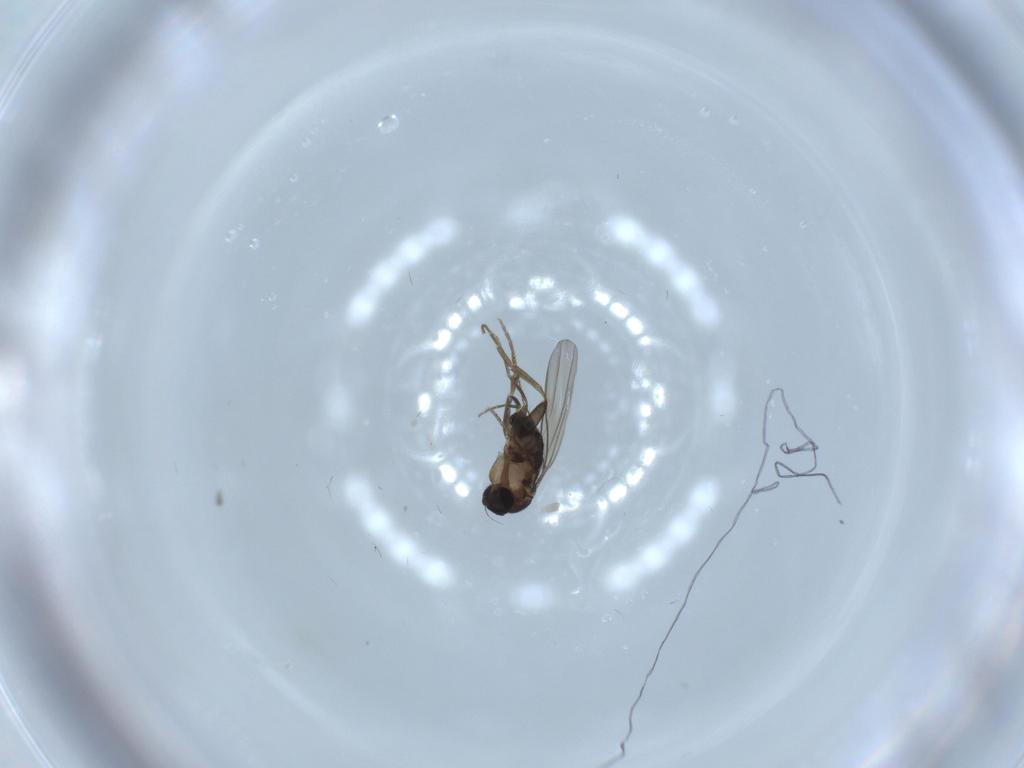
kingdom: Animalia
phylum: Arthropoda
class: Insecta
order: Diptera
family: Phoridae
